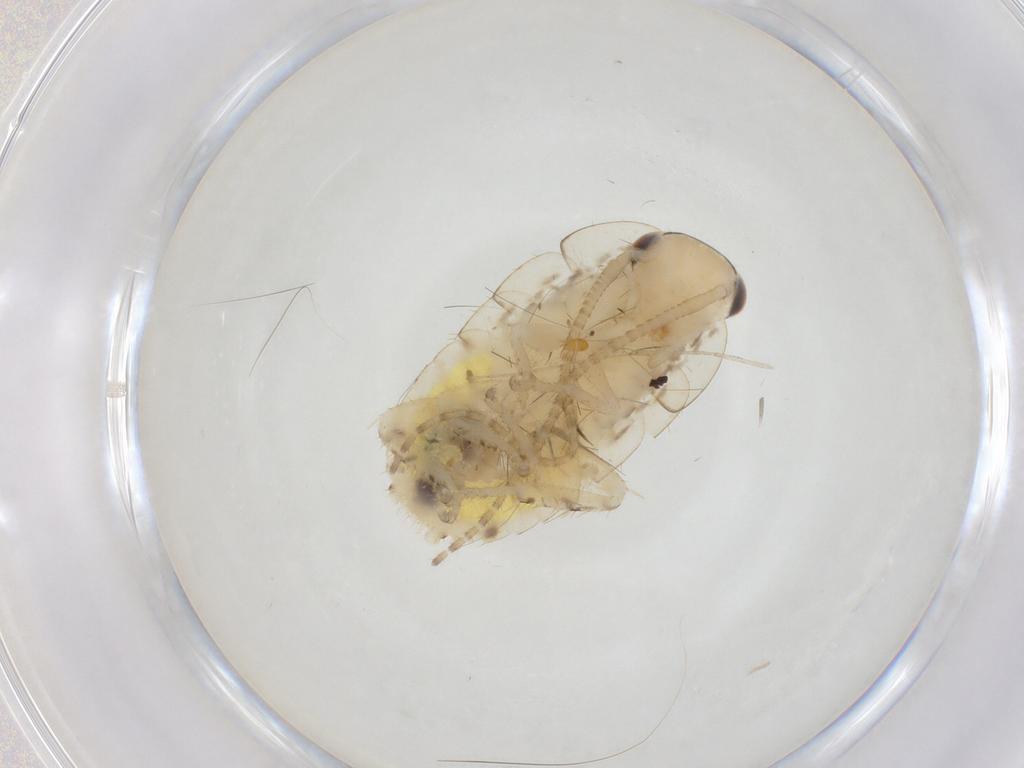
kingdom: Animalia
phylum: Arthropoda
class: Insecta
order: Blattodea
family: Ectobiidae
